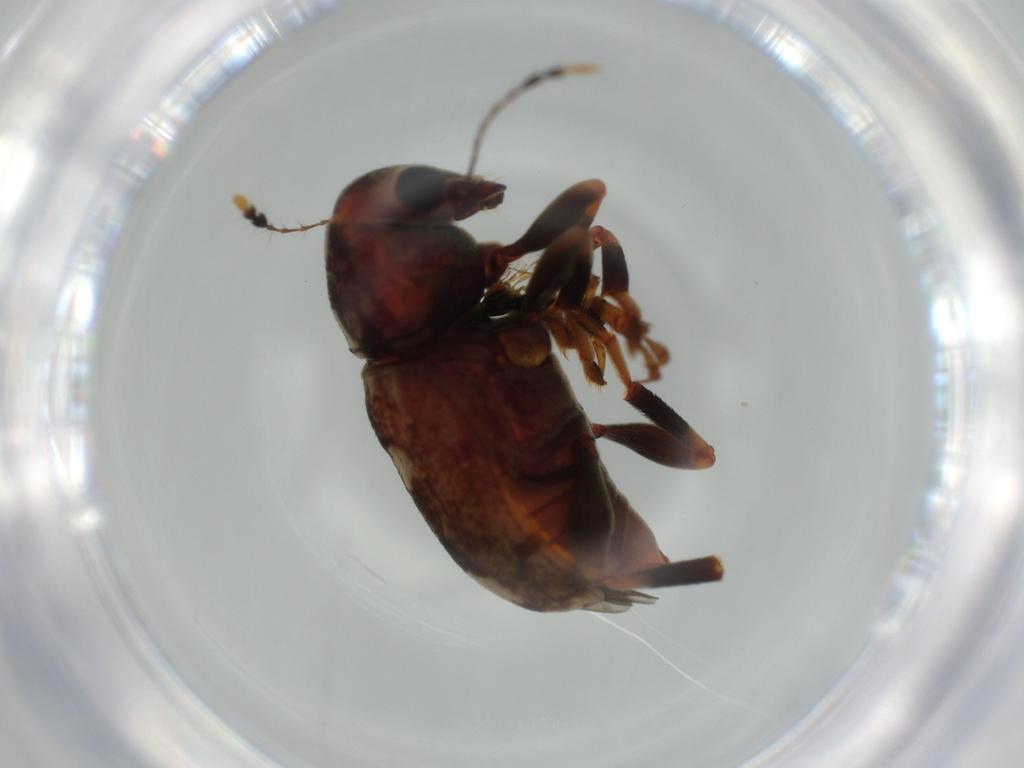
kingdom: Animalia
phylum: Arthropoda
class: Insecta
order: Coleoptera
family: Anthribidae
